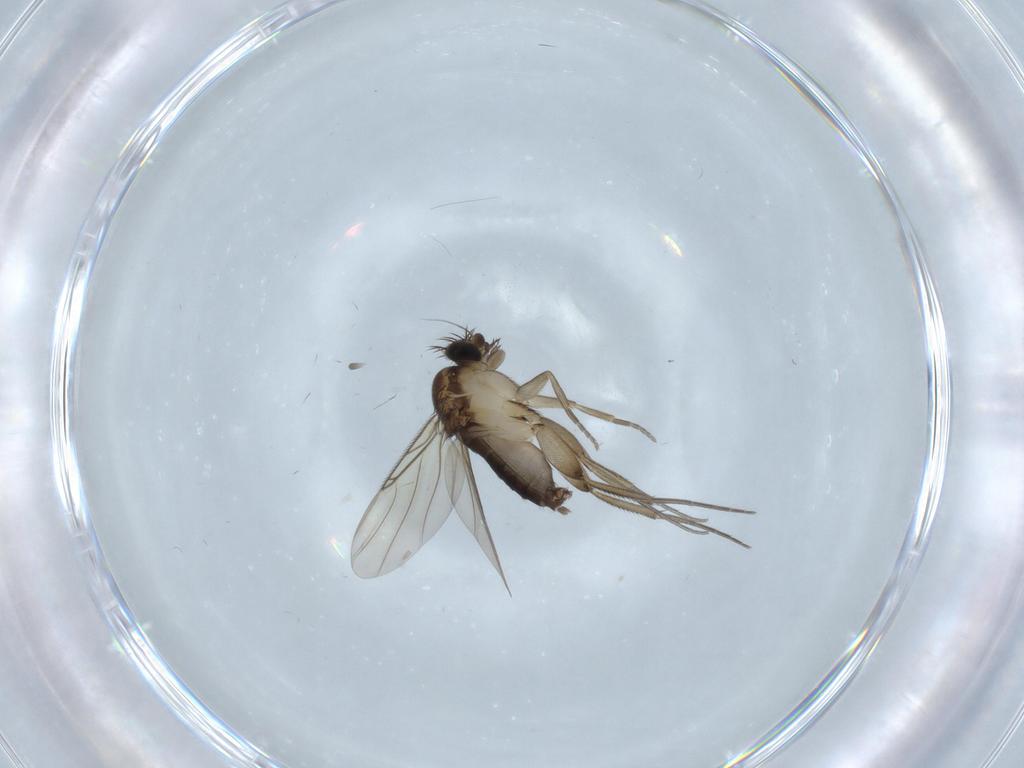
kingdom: Animalia
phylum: Arthropoda
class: Insecta
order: Diptera
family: Phoridae
